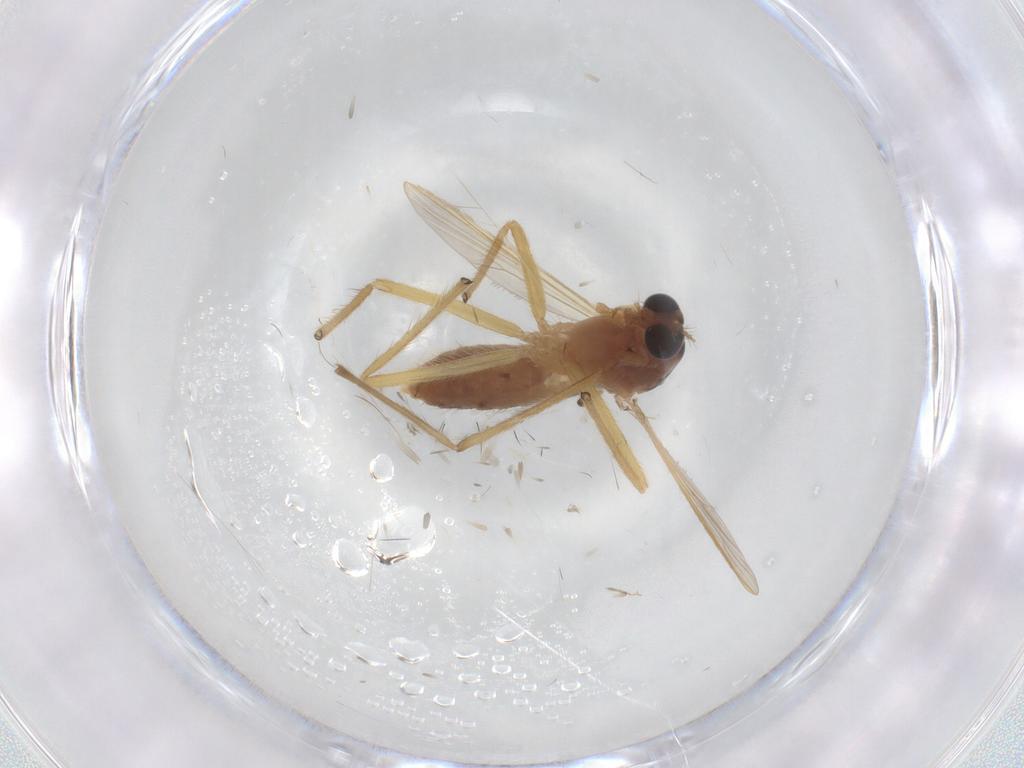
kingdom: Animalia
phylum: Arthropoda
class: Insecta
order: Diptera
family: Chironomidae
